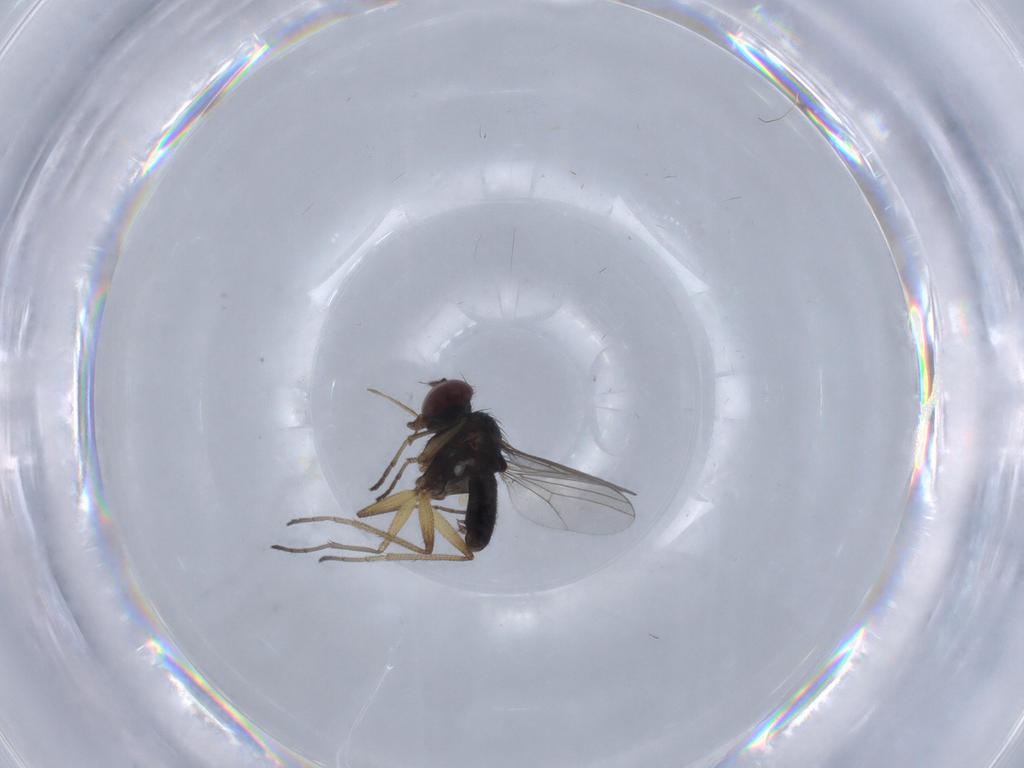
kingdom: Animalia
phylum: Arthropoda
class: Insecta
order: Diptera
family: Dolichopodidae
